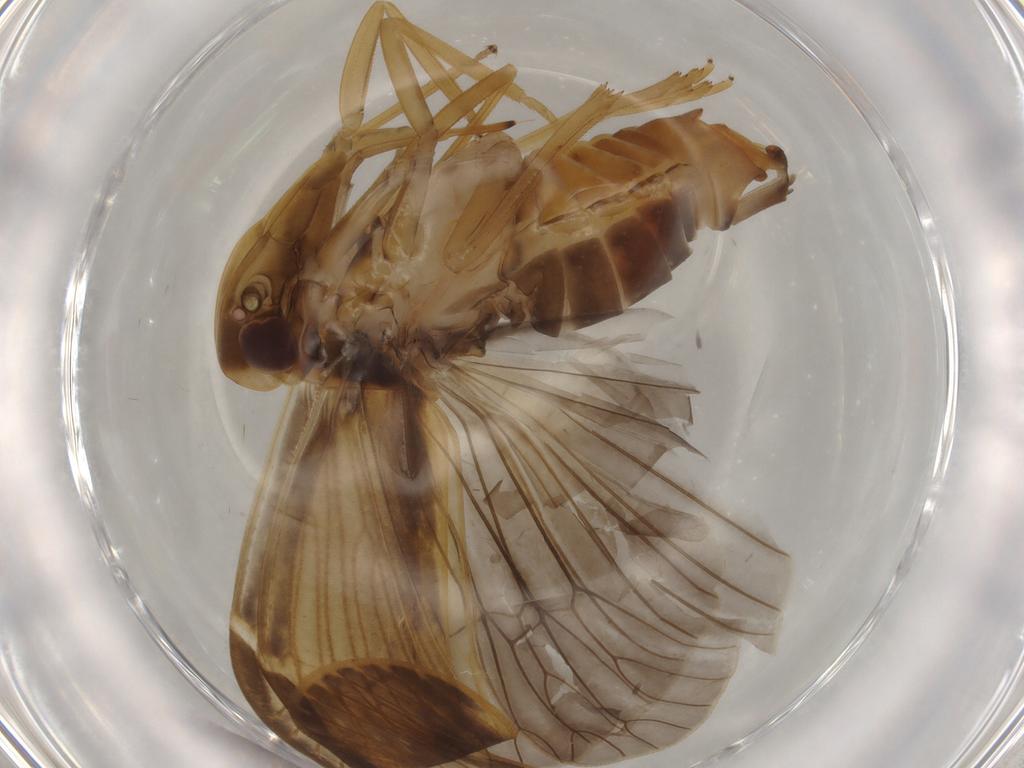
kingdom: Animalia
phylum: Arthropoda
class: Insecta
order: Hemiptera
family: Cixiidae
